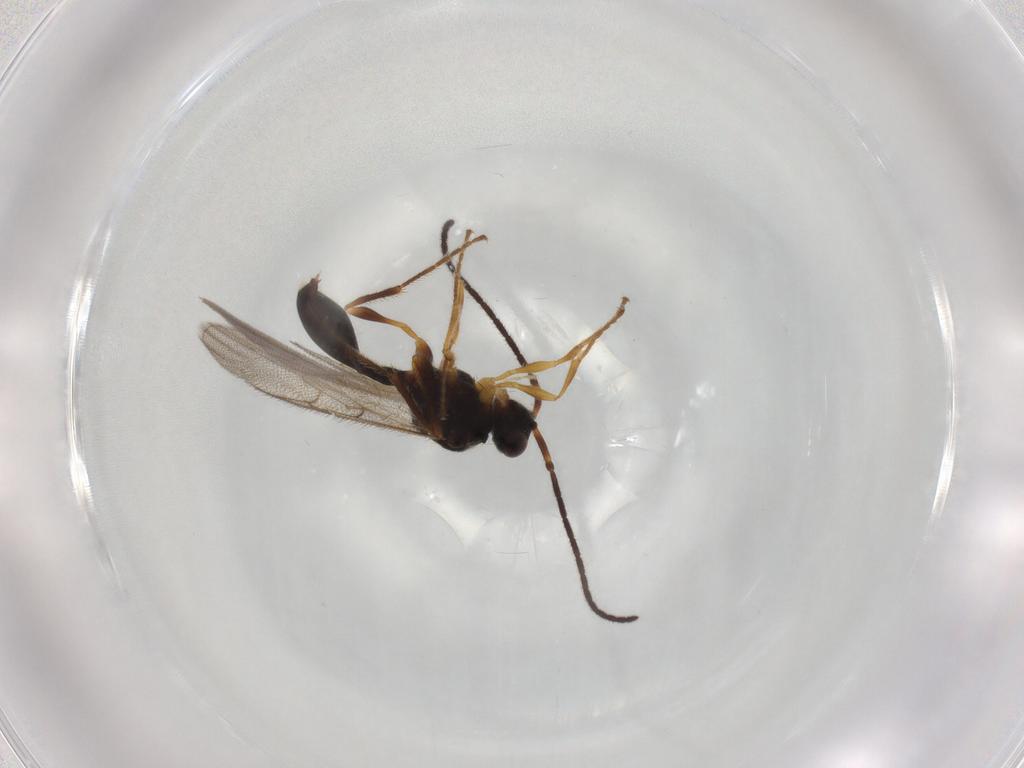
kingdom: Animalia
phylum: Arthropoda
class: Insecta
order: Hymenoptera
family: Diapriidae
